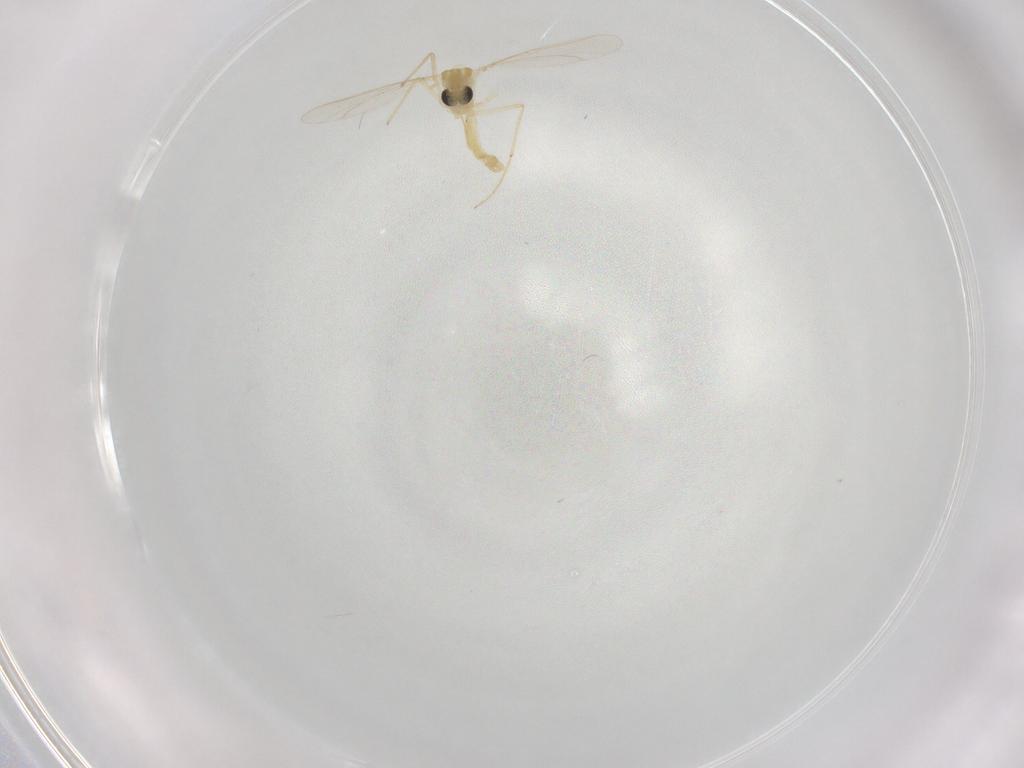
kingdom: Animalia
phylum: Arthropoda
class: Insecta
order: Diptera
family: Chironomidae
